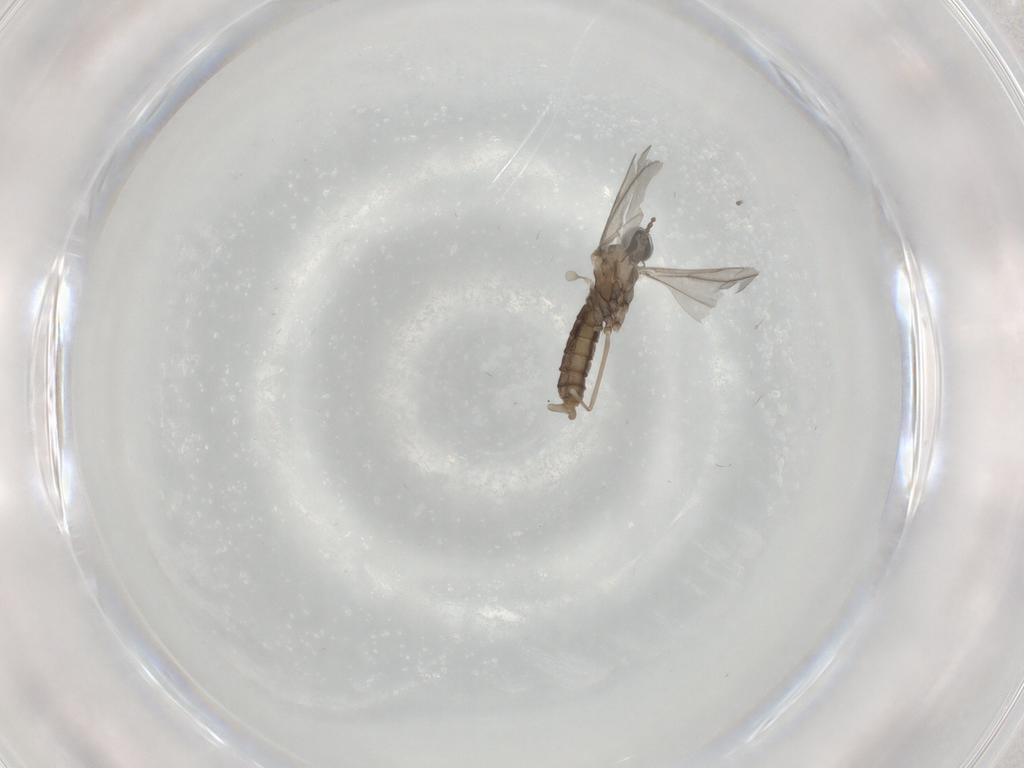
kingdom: Animalia
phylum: Arthropoda
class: Insecta
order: Diptera
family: Cecidomyiidae
